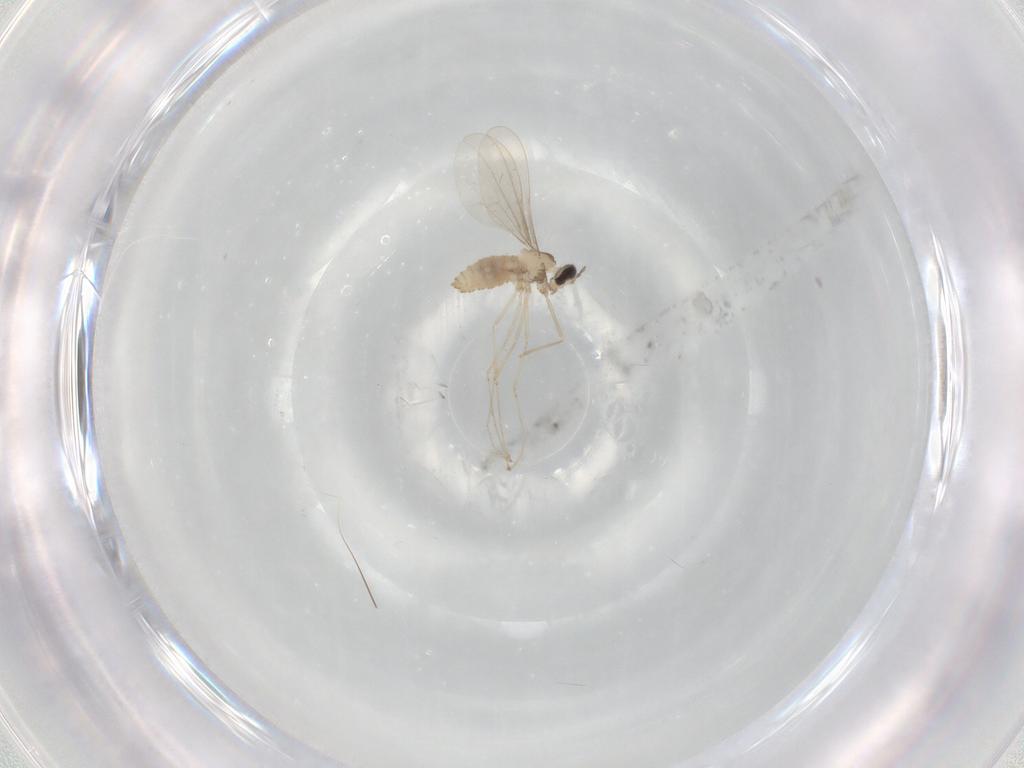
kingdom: Animalia
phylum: Arthropoda
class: Insecta
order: Diptera
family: Cecidomyiidae
